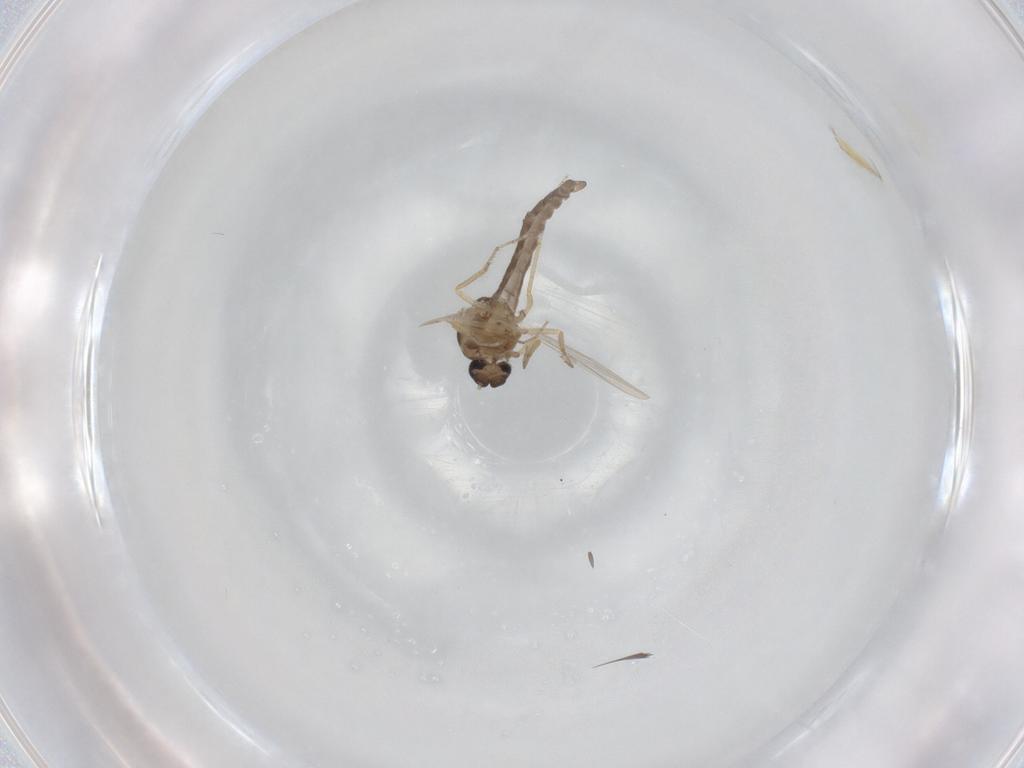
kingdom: Animalia
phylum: Arthropoda
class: Insecta
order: Diptera
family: Ceratopogonidae
